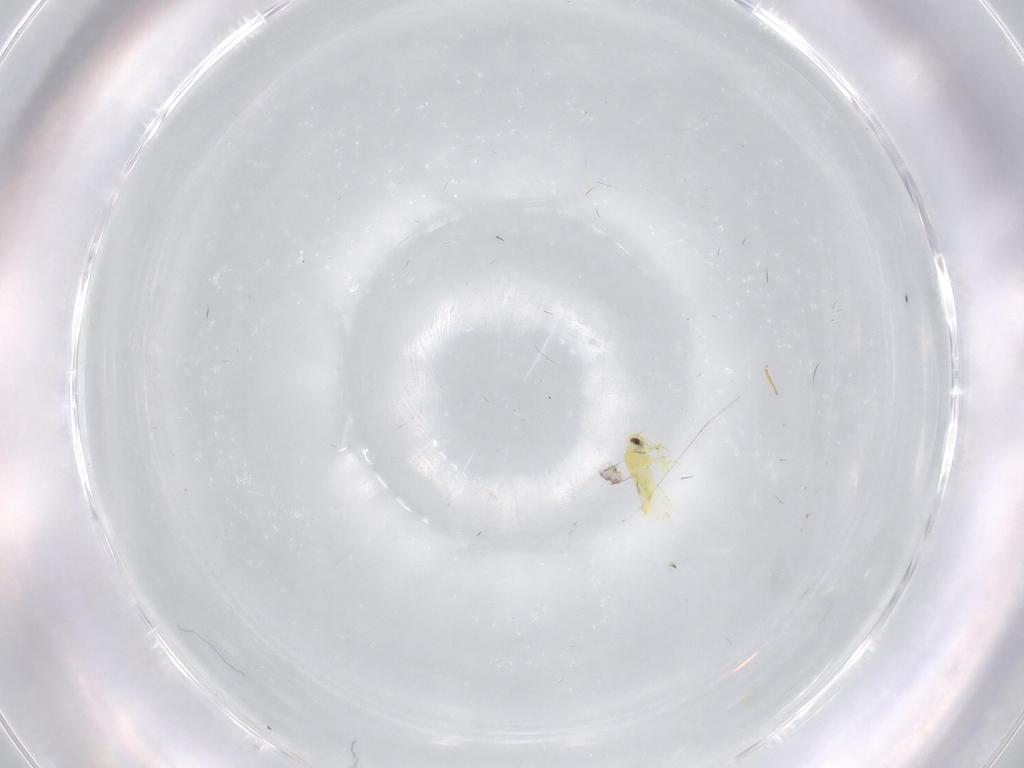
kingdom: Animalia
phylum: Arthropoda
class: Insecta
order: Hemiptera
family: Aleyrodidae
